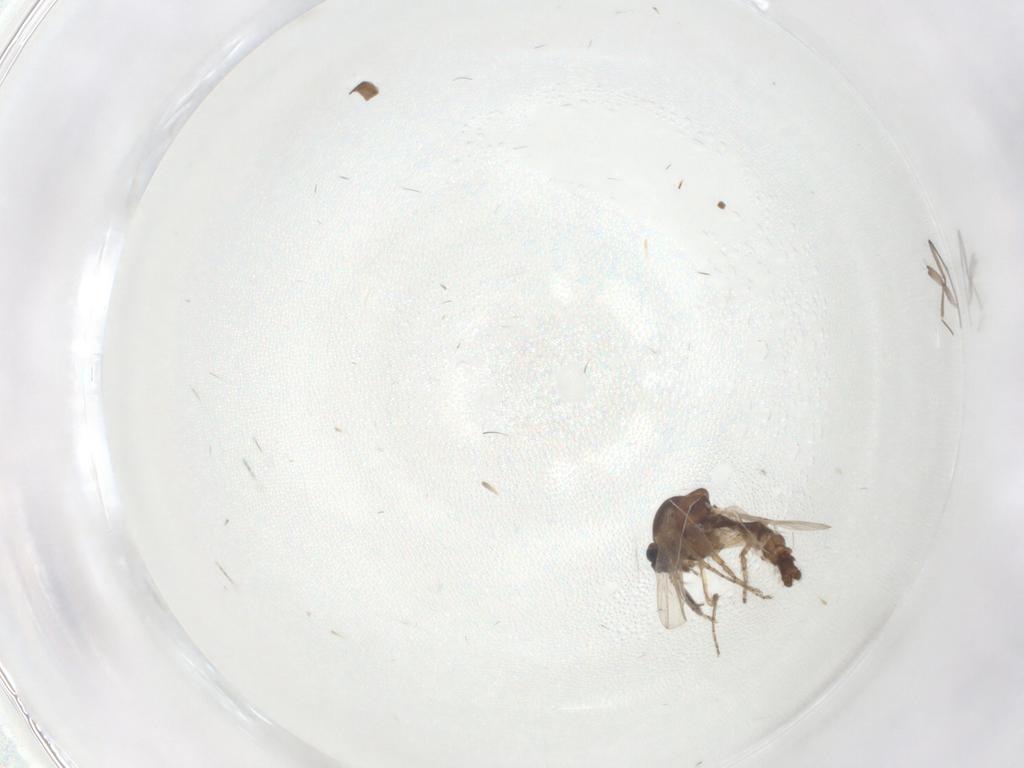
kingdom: Animalia
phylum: Arthropoda
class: Insecta
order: Diptera
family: Ceratopogonidae
